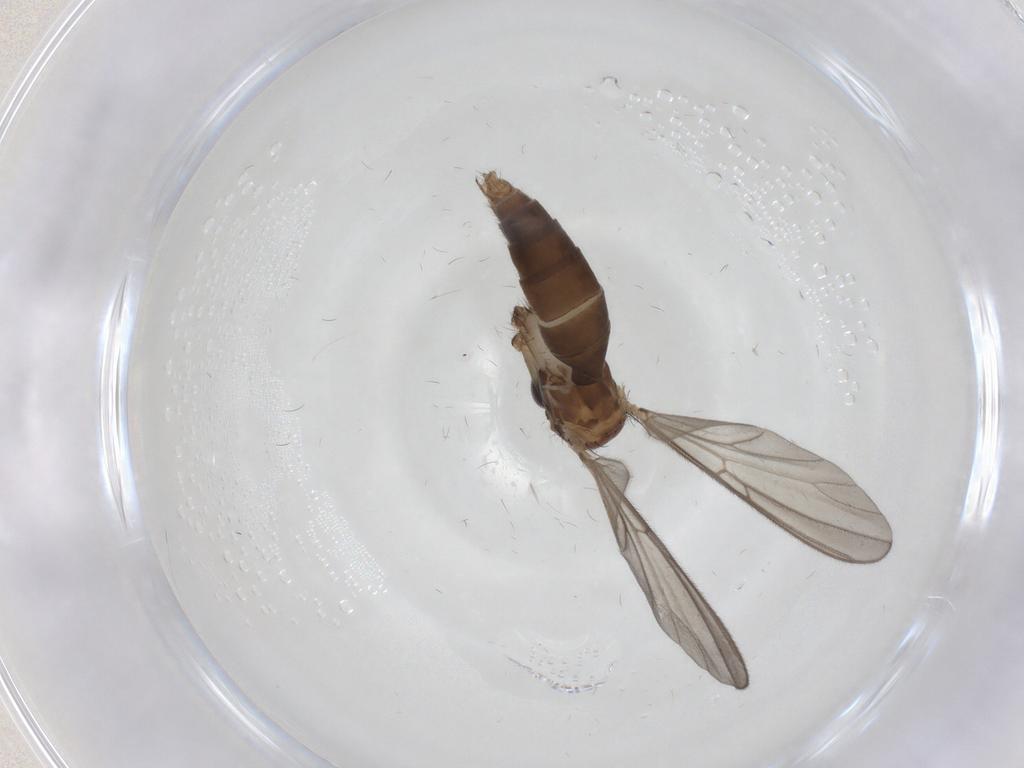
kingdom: Animalia
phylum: Arthropoda
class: Insecta
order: Diptera
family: Mycetophilidae
